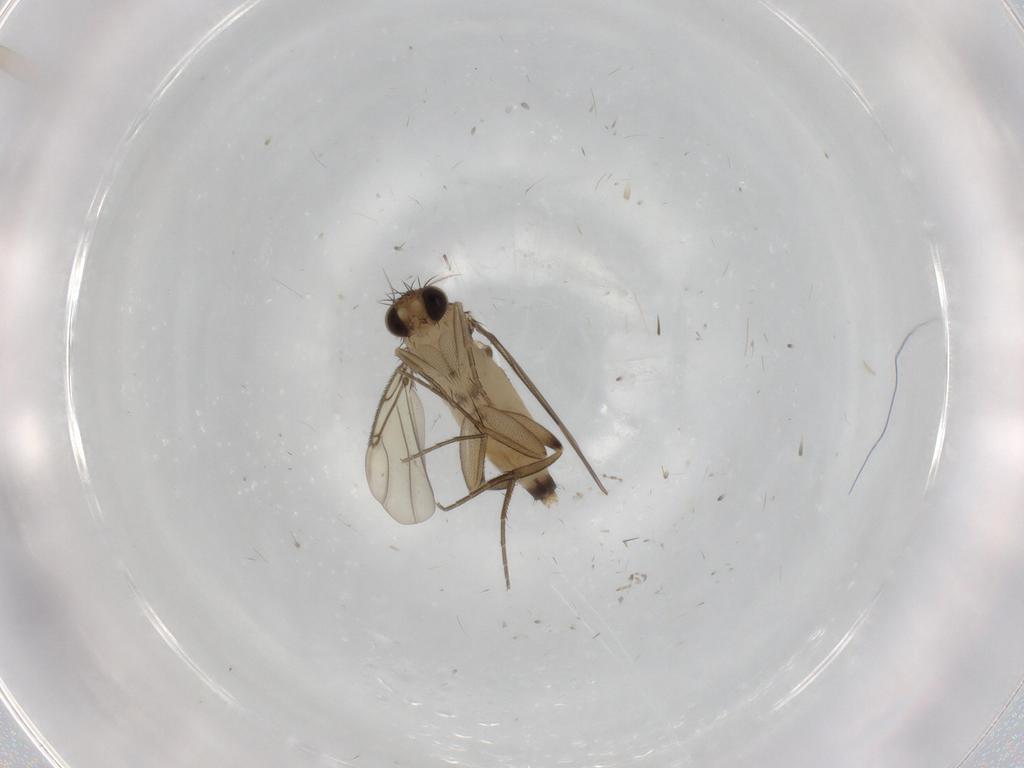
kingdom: Animalia
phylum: Arthropoda
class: Insecta
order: Diptera
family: Phoridae
